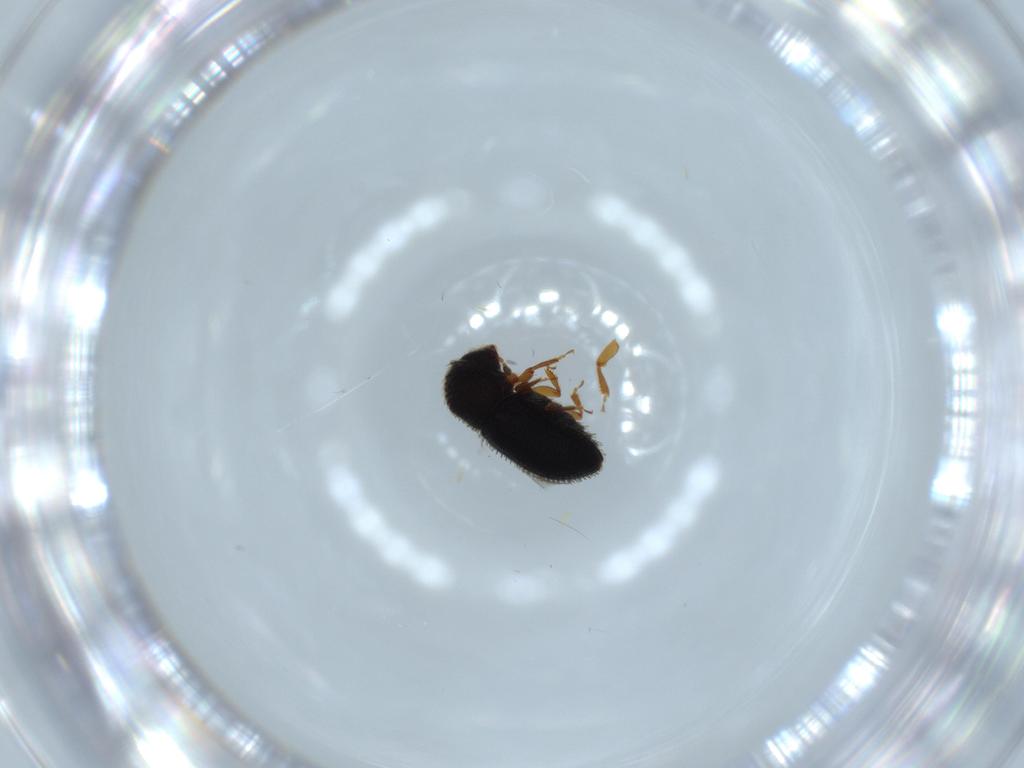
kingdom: Animalia
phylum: Arthropoda
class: Insecta
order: Coleoptera
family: Curculionidae
